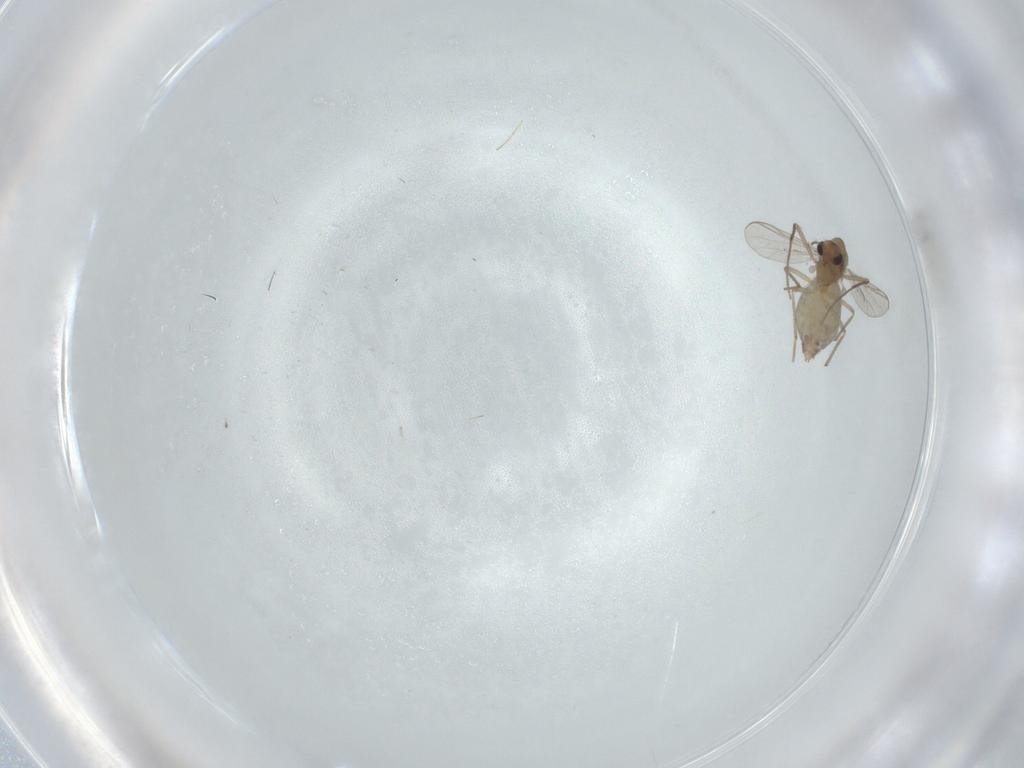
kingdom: Animalia
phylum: Arthropoda
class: Insecta
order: Diptera
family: Chironomidae
